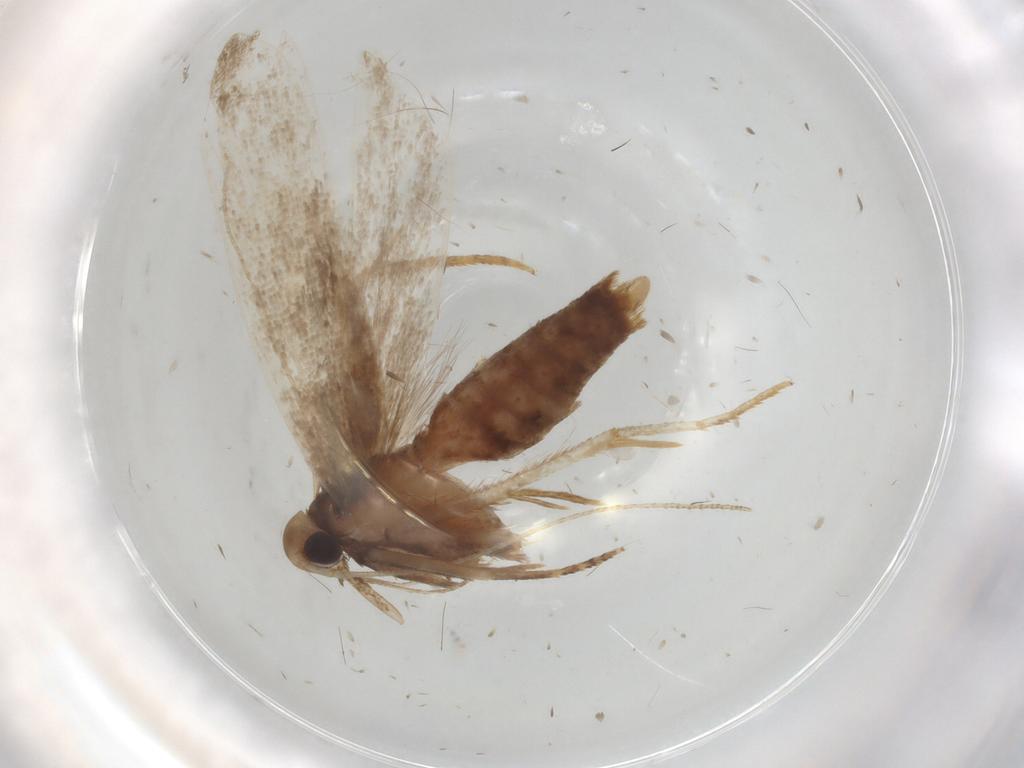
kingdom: Animalia
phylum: Arthropoda
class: Insecta
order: Lepidoptera
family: Gelechiidae
